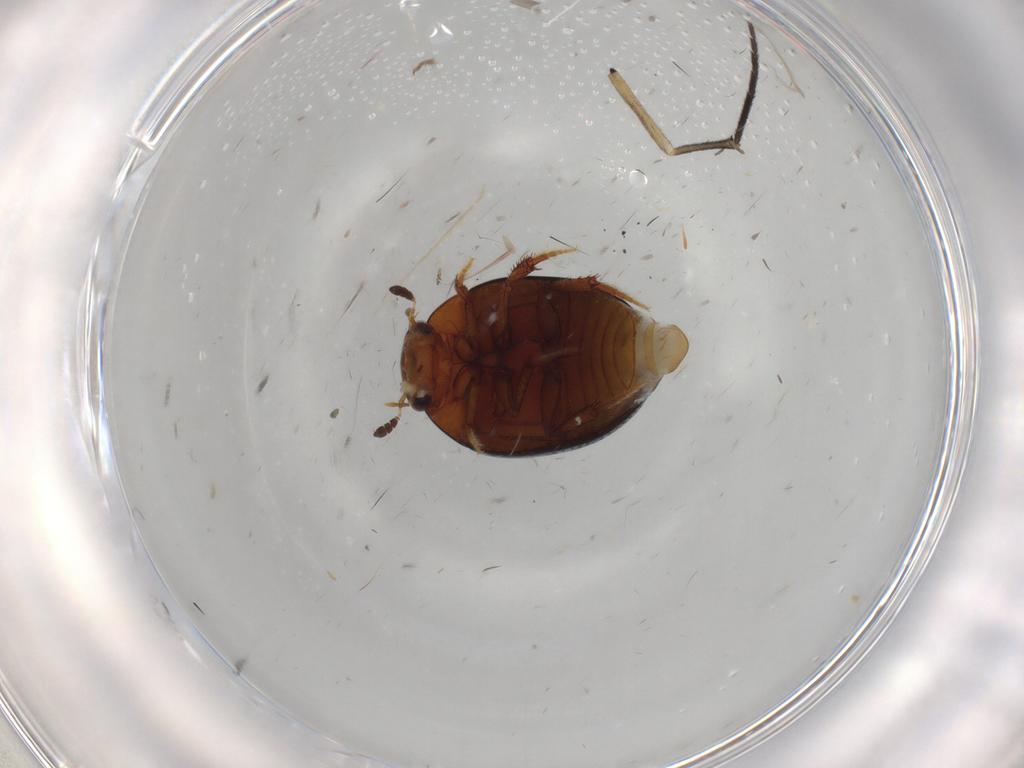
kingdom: Animalia
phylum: Arthropoda
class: Insecta
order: Coleoptera
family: Hydrophilidae
